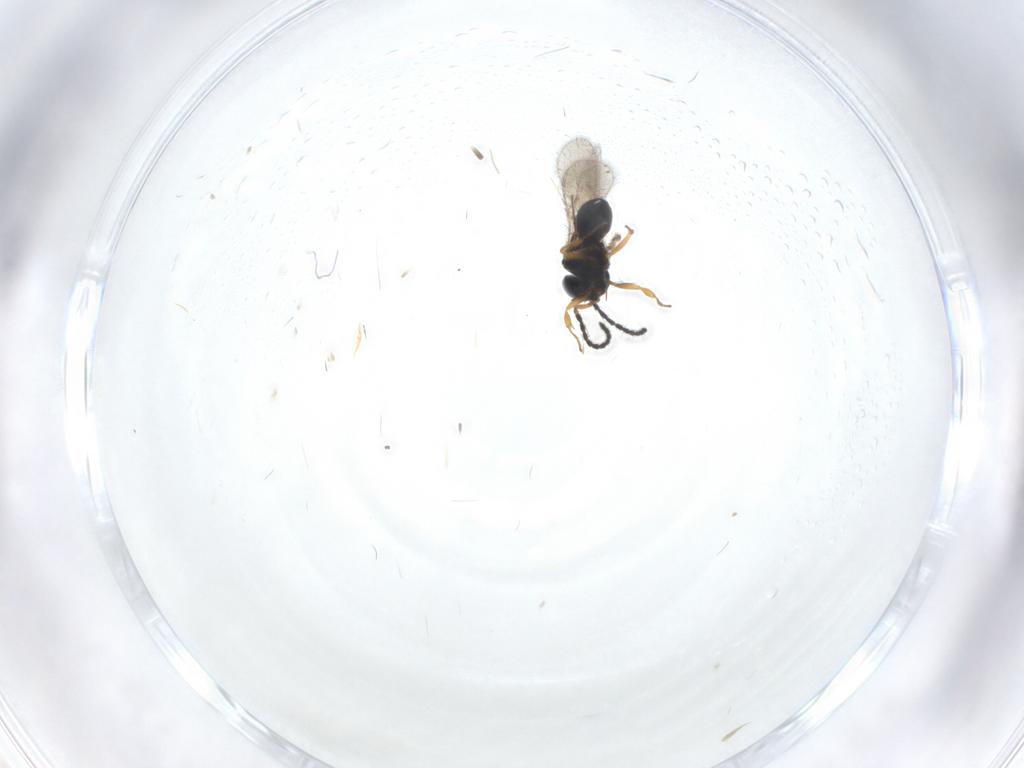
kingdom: Animalia
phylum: Arthropoda
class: Insecta
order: Hymenoptera
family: Scelionidae
